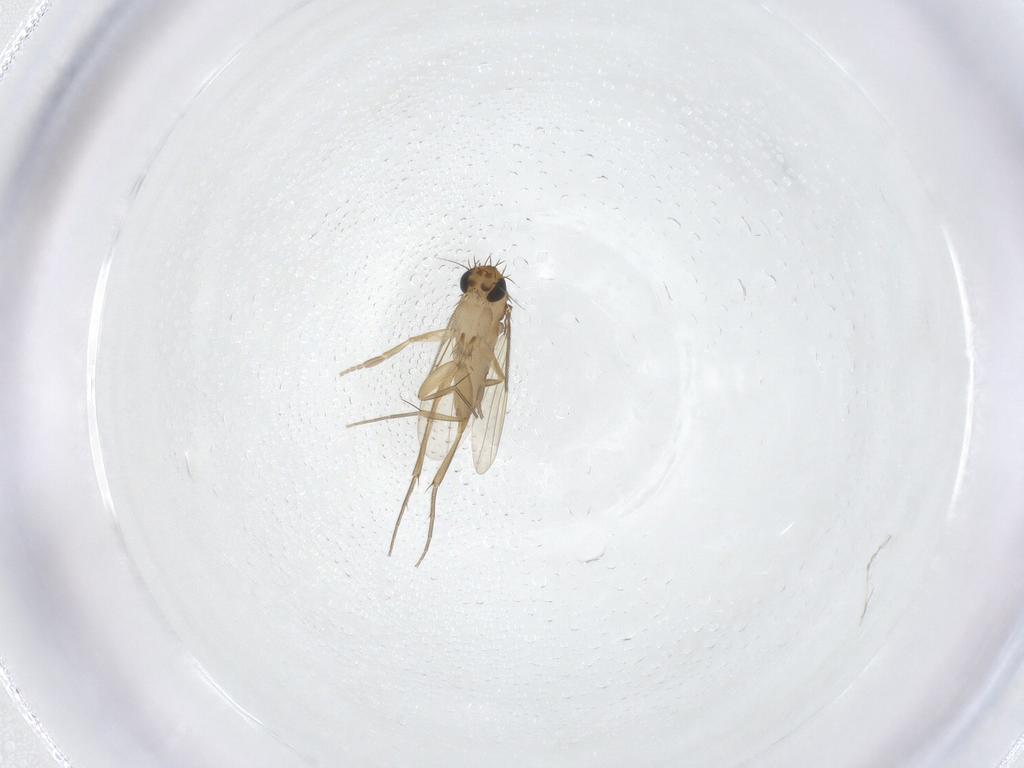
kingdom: Animalia
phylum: Arthropoda
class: Insecta
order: Diptera
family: Phoridae
